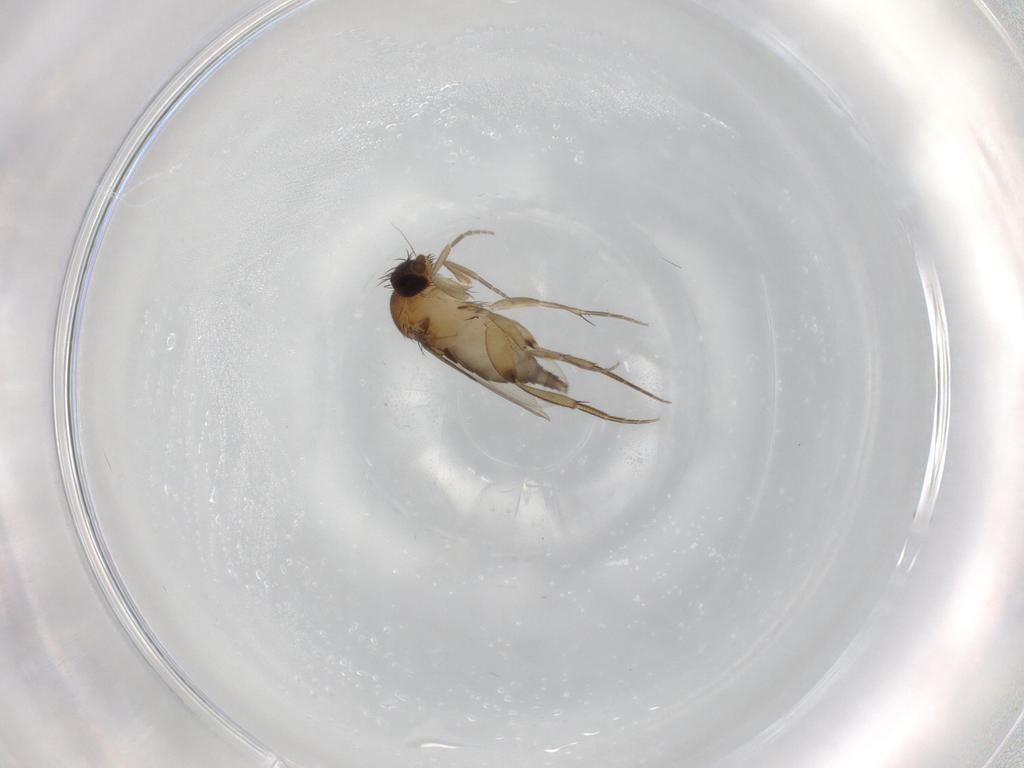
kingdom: Animalia
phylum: Arthropoda
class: Insecta
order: Diptera
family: Phoridae
